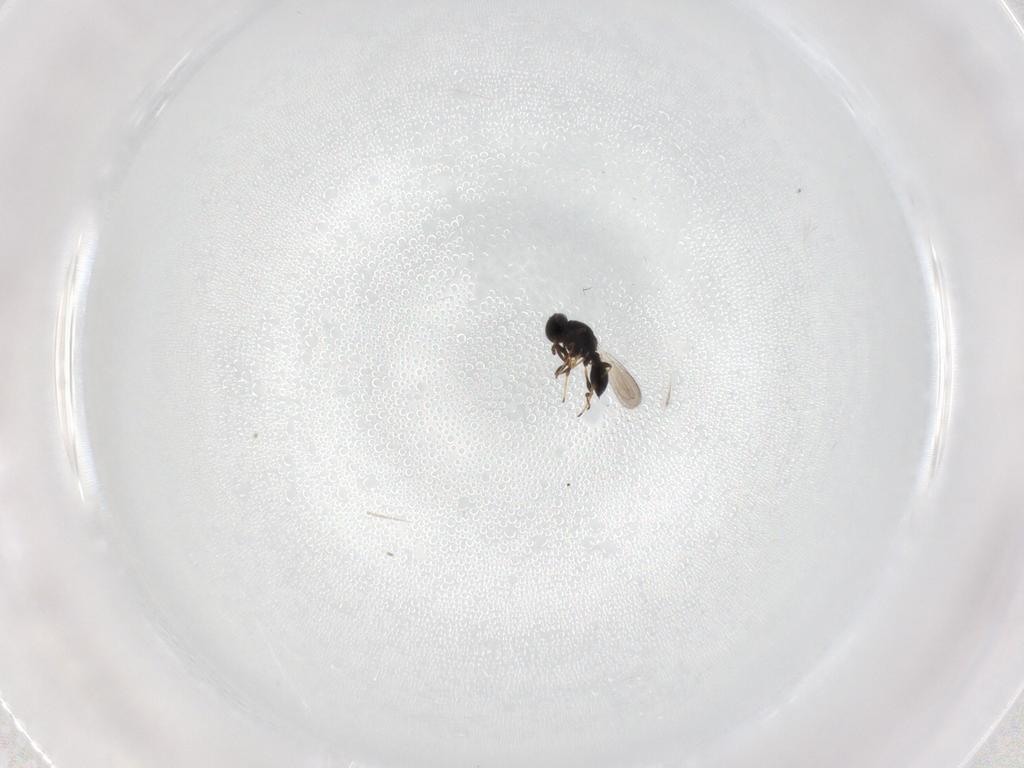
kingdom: Animalia
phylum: Arthropoda
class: Insecta
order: Hymenoptera
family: Platygastridae
